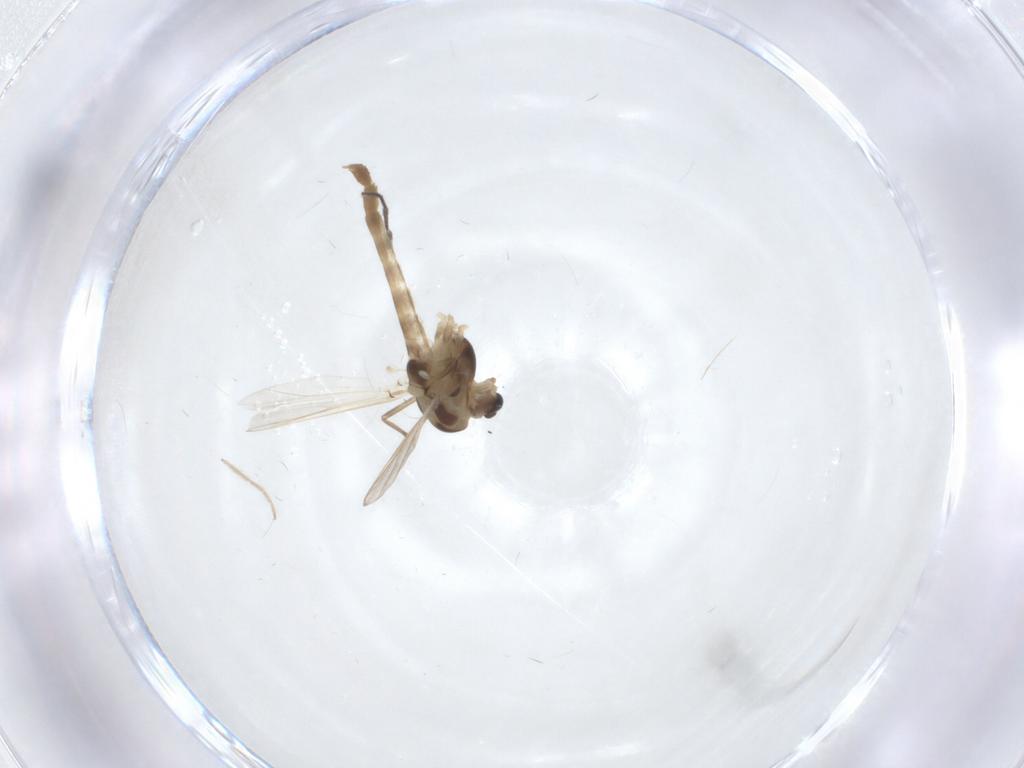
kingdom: Animalia
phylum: Arthropoda
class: Insecta
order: Diptera
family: Chironomidae
